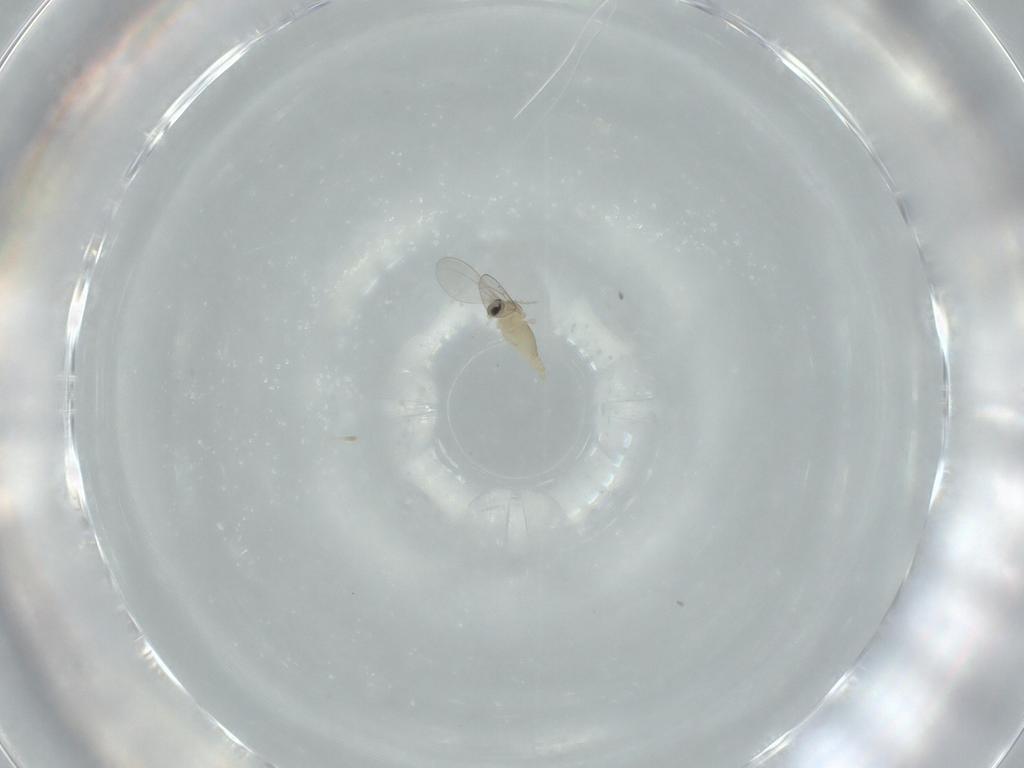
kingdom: Animalia
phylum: Arthropoda
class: Insecta
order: Diptera
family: Cecidomyiidae
